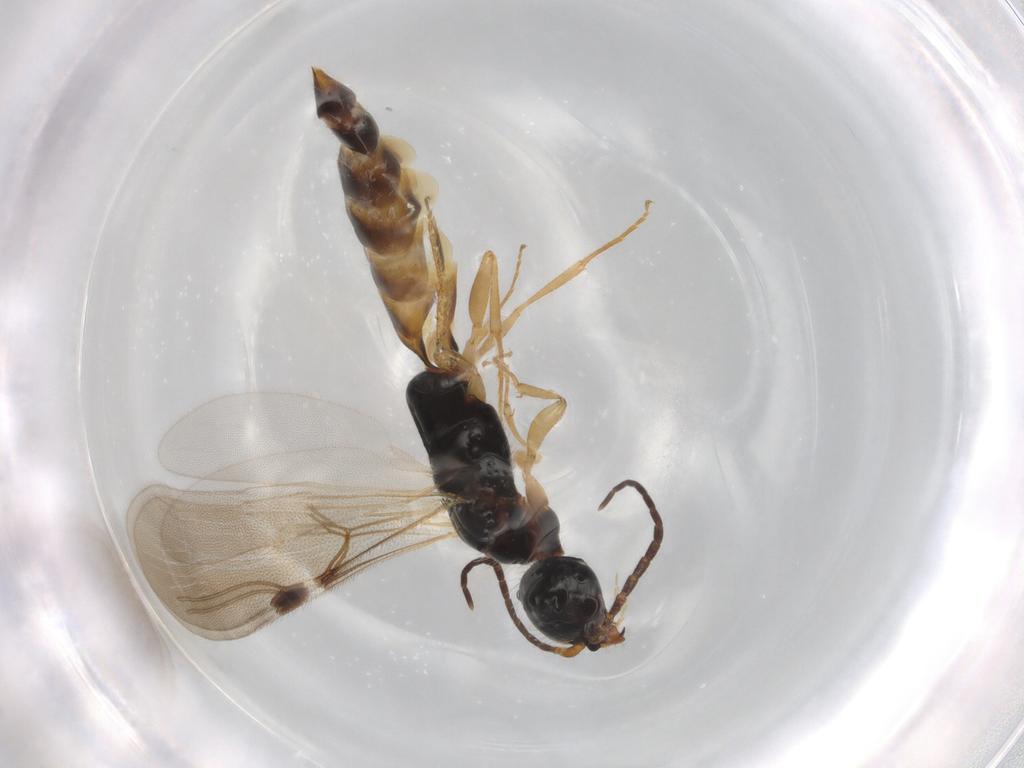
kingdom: Animalia
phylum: Arthropoda
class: Insecta
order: Hymenoptera
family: Bethylidae
